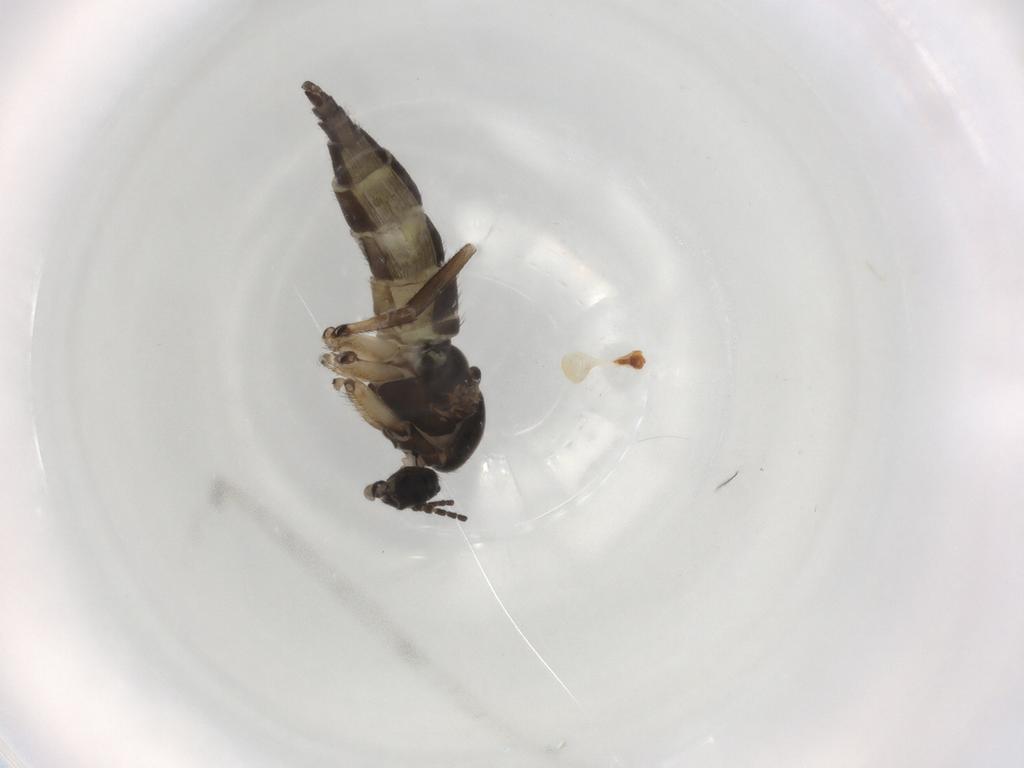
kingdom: Animalia
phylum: Arthropoda
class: Insecta
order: Diptera
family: Sciaridae
